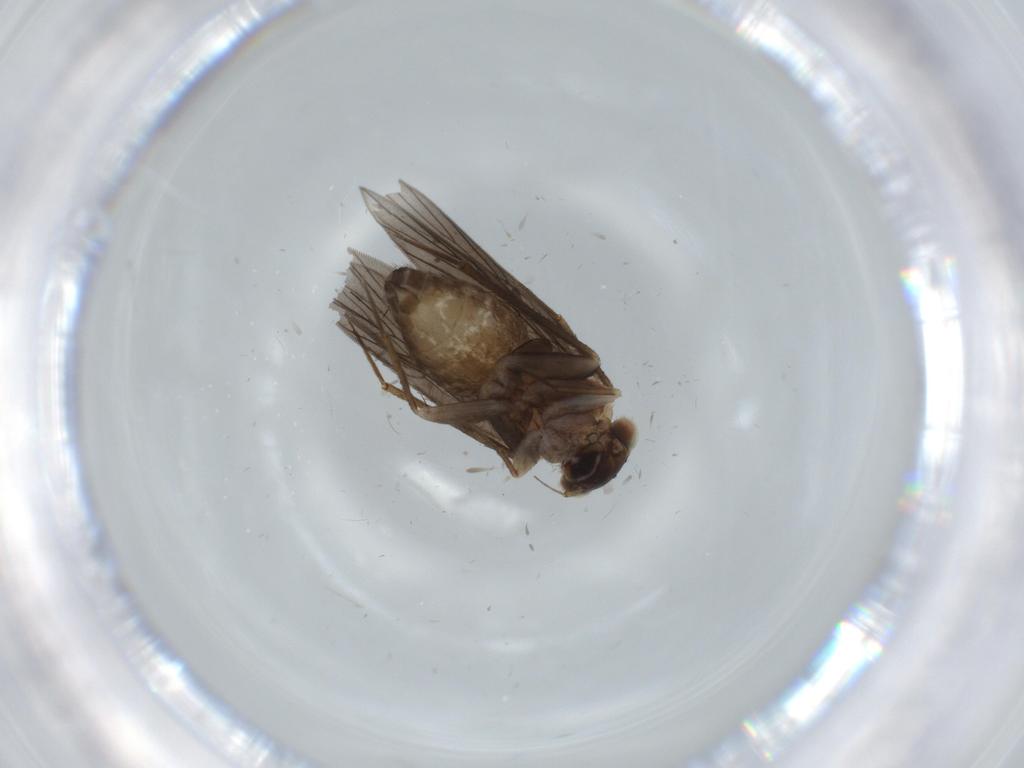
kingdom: Animalia
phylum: Arthropoda
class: Insecta
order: Psocodea
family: Lepidopsocidae
